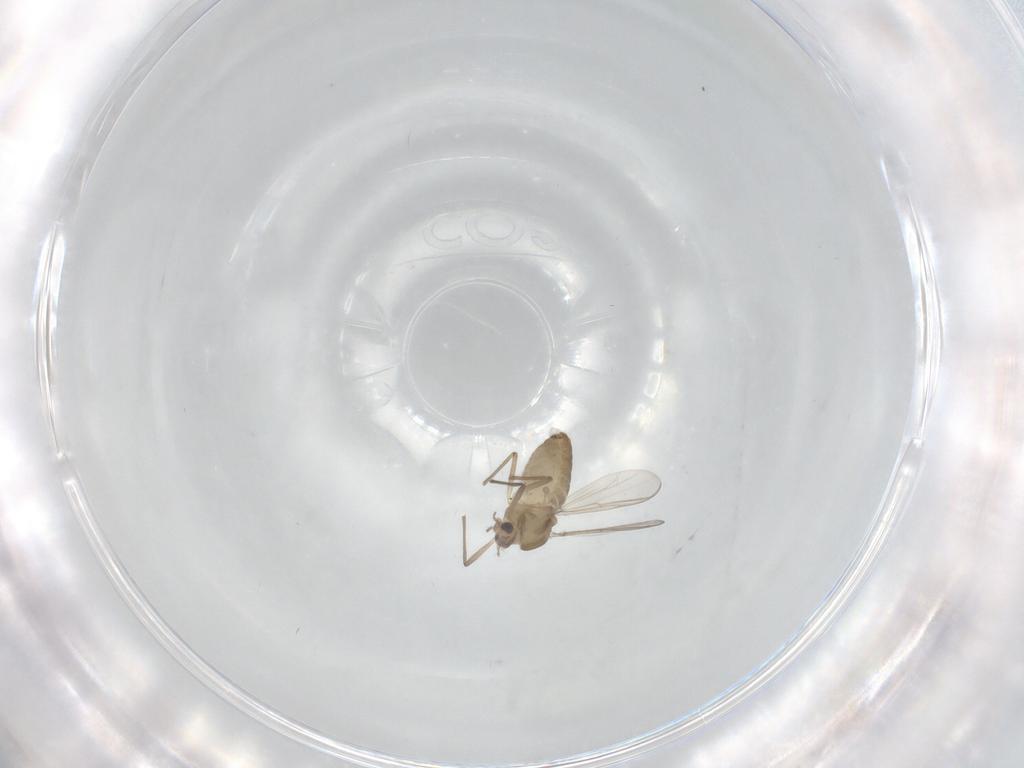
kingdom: Animalia
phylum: Arthropoda
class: Insecta
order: Diptera
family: Chironomidae
